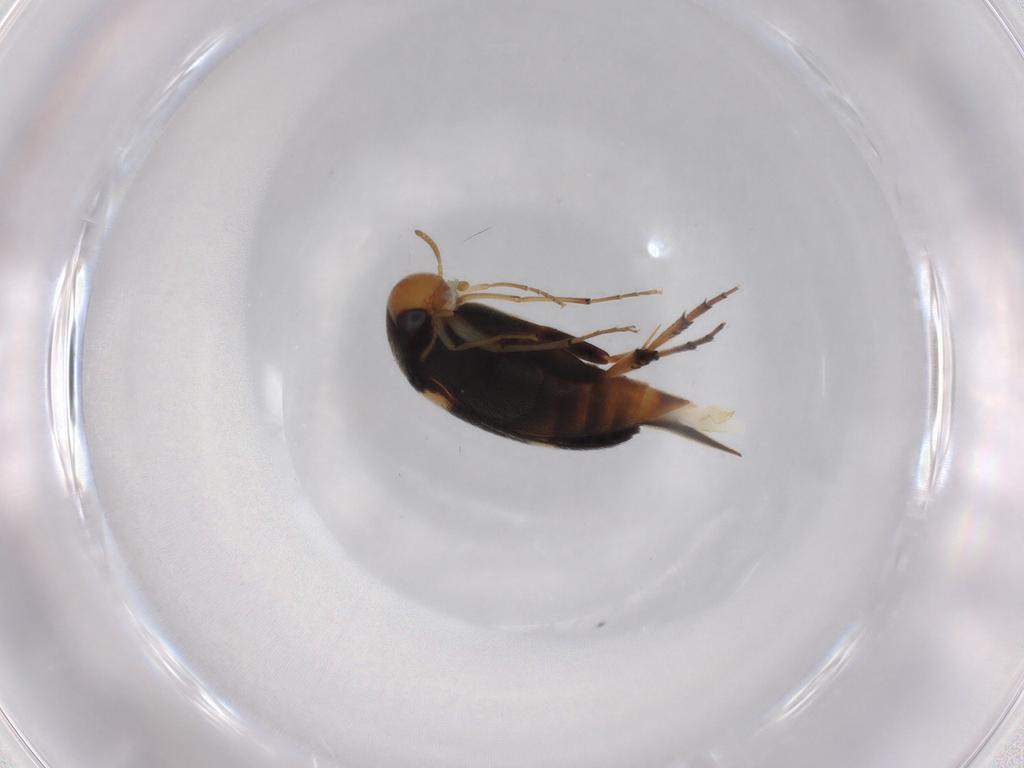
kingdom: Animalia
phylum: Arthropoda
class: Insecta
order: Coleoptera
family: Mordellidae
